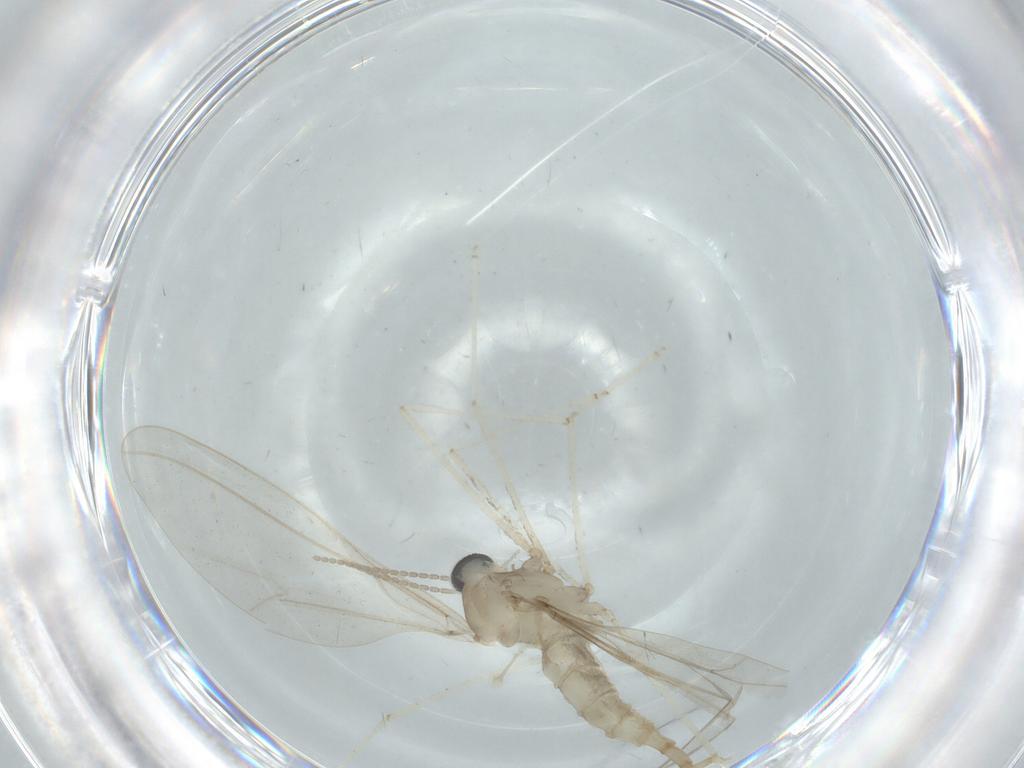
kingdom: Animalia
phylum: Arthropoda
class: Insecta
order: Diptera
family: Cecidomyiidae
